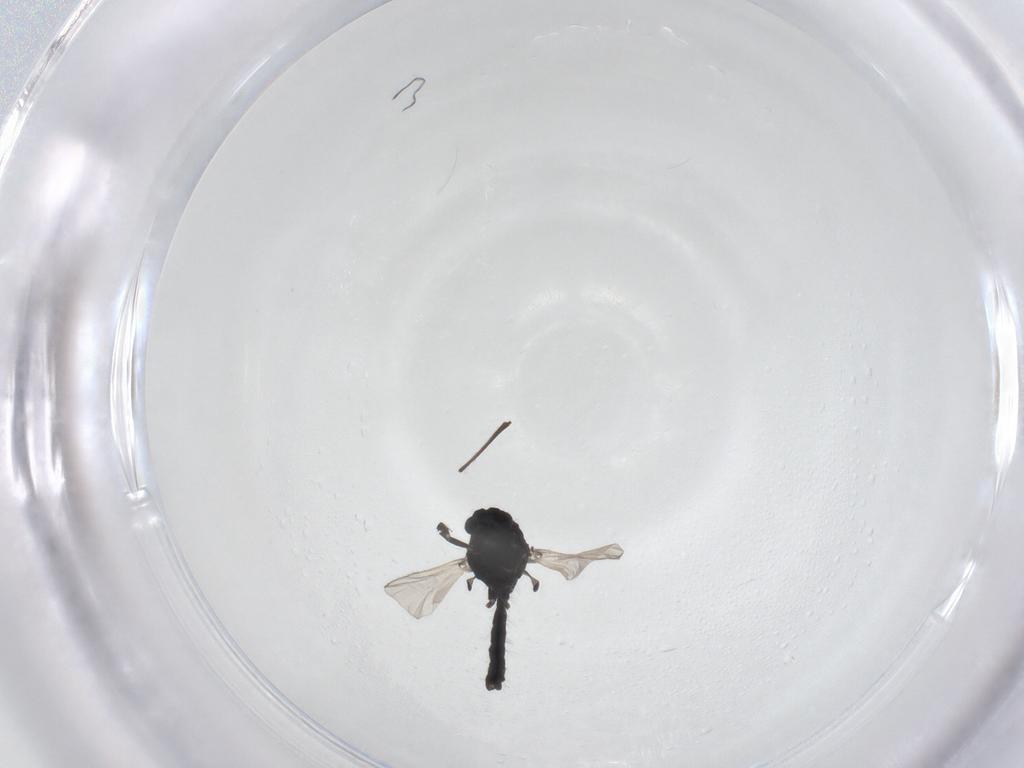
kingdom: Animalia
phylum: Arthropoda
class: Insecta
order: Diptera
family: Chironomidae
